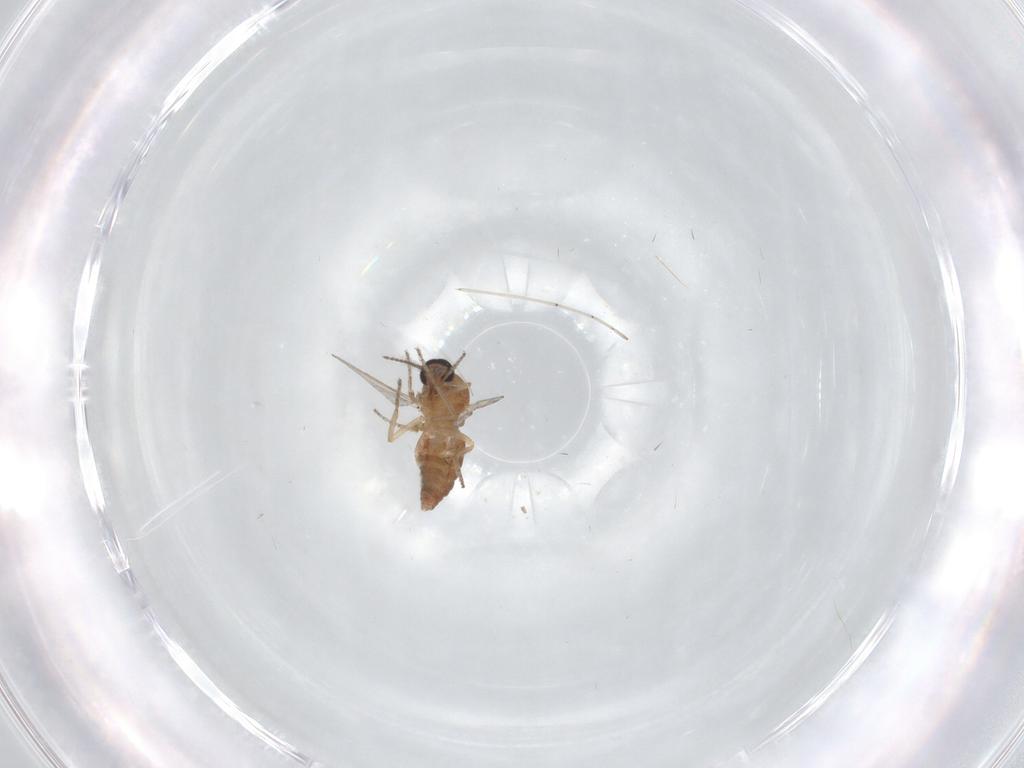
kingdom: Animalia
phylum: Arthropoda
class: Insecta
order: Diptera
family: Ceratopogonidae
